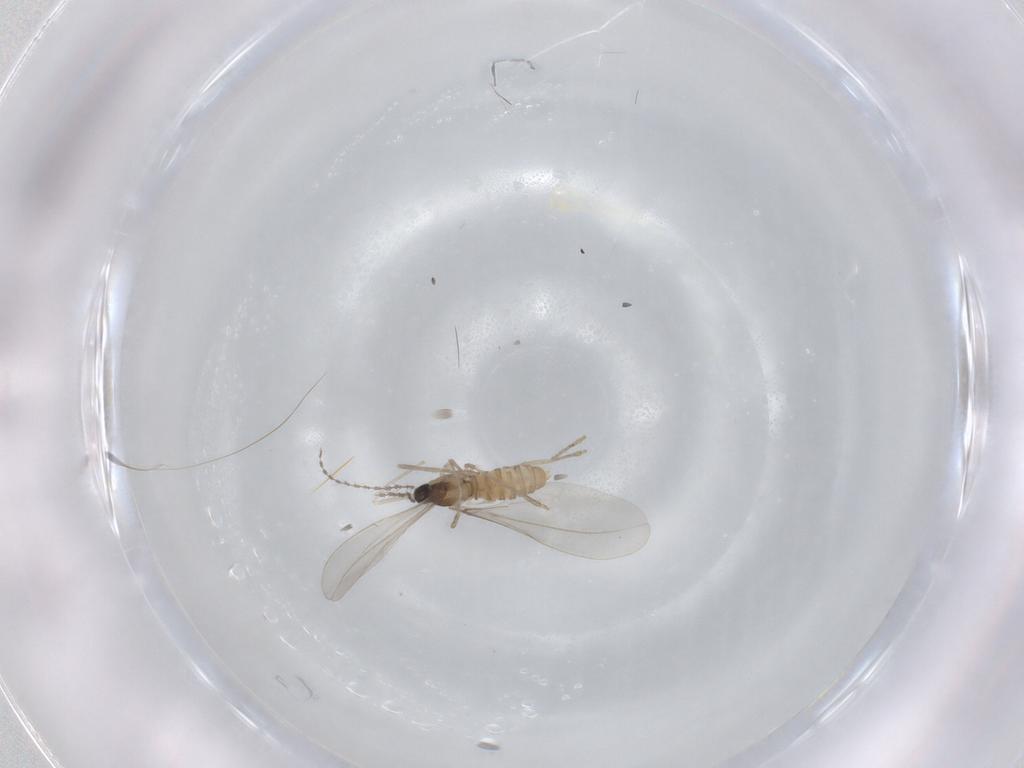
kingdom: Animalia
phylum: Arthropoda
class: Insecta
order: Diptera
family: Cecidomyiidae
